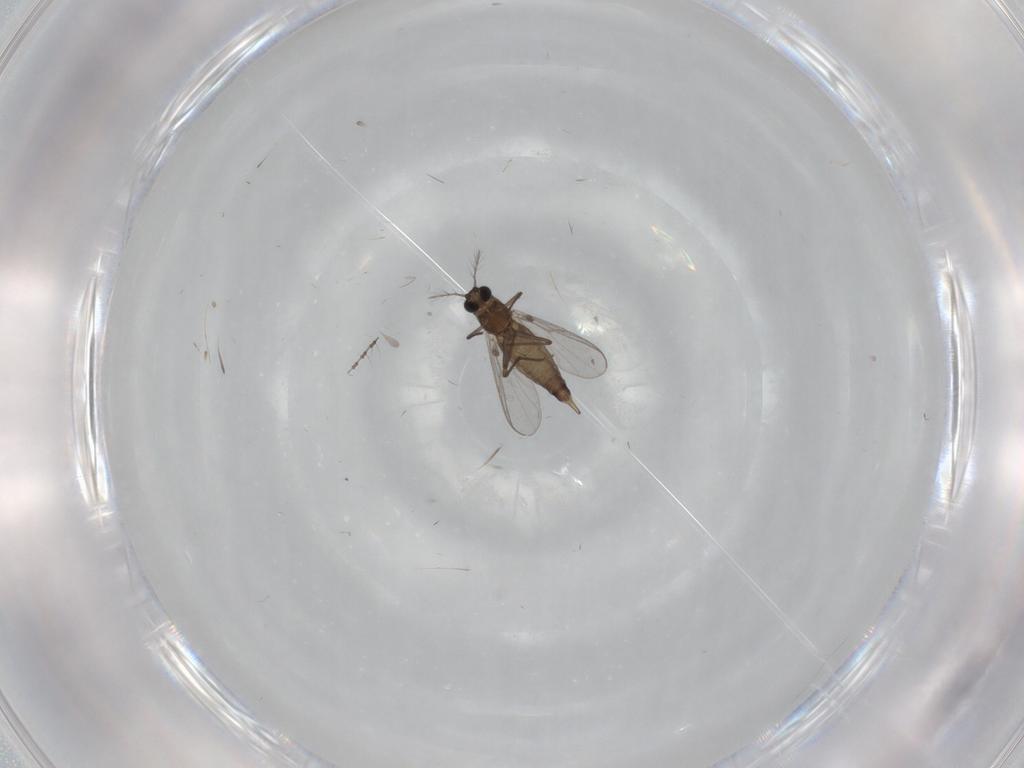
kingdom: Animalia
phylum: Arthropoda
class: Insecta
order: Diptera
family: Chironomidae
